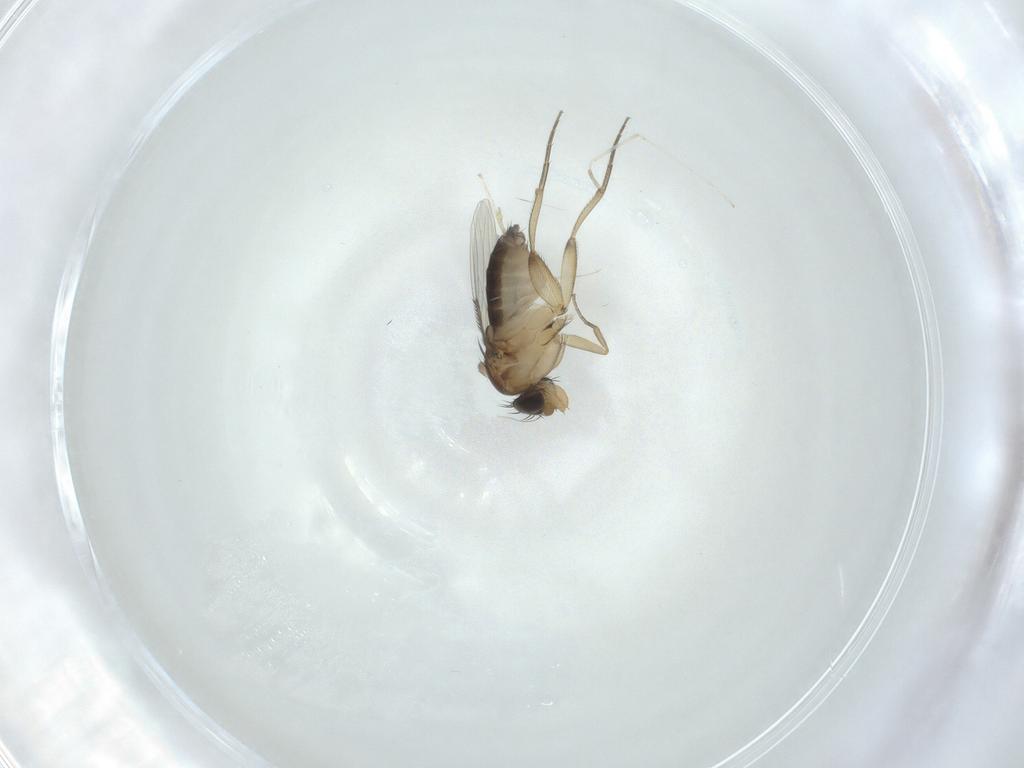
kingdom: Animalia
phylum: Arthropoda
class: Insecta
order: Diptera
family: Cecidomyiidae
